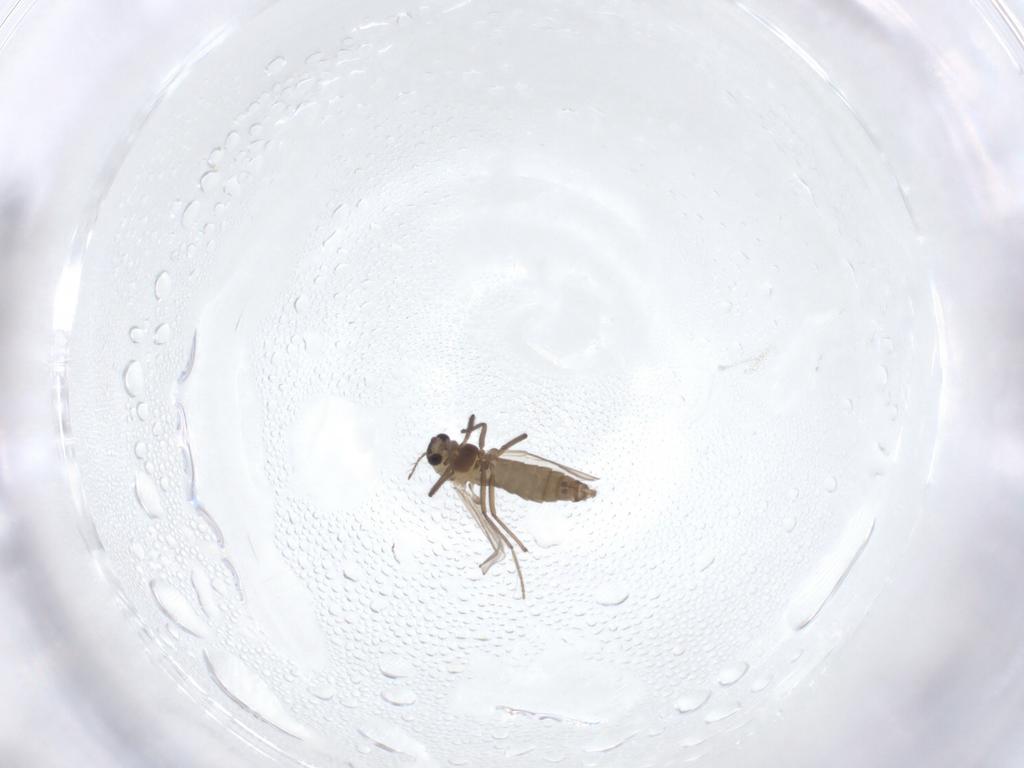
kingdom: Animalia
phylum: Arthropoda
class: Insecta
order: Diptera
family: Chironomidae
